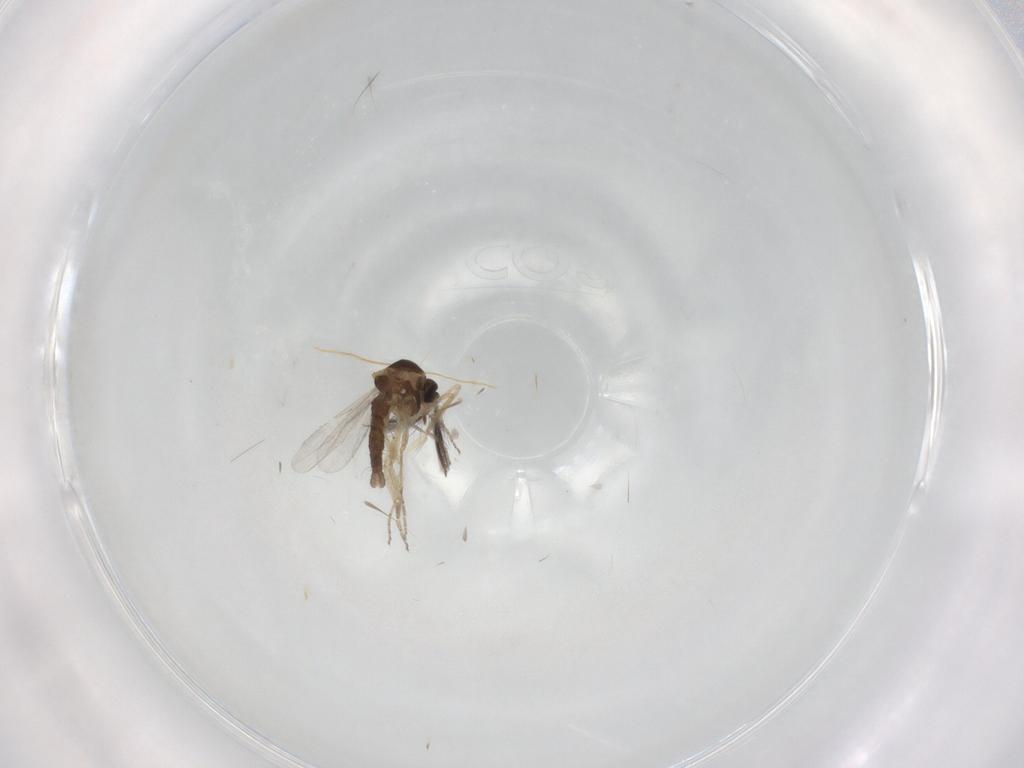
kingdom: Animalia
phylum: Arthropoda
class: Insecta
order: Diptera
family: Ceratopogonidae
